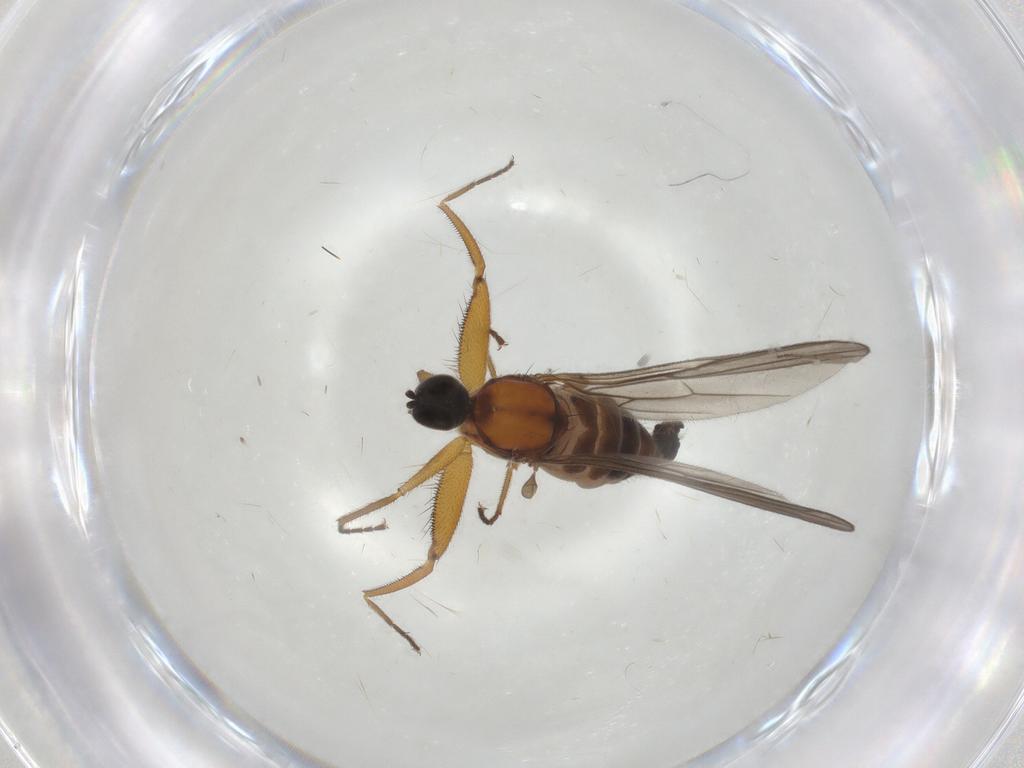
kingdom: Animalia
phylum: Arthropoda
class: Insecta
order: Diptera
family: Hybotidae
